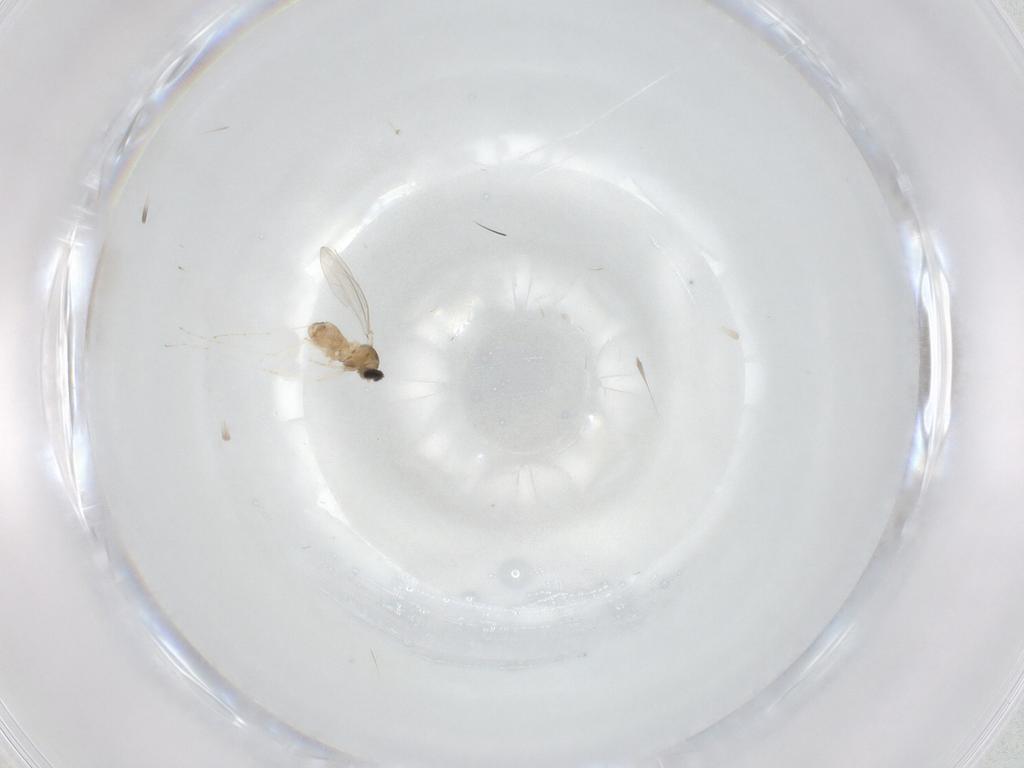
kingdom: Animalia
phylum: Arthropoda
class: Insecta
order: Diptera
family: Cecidomyiidae
